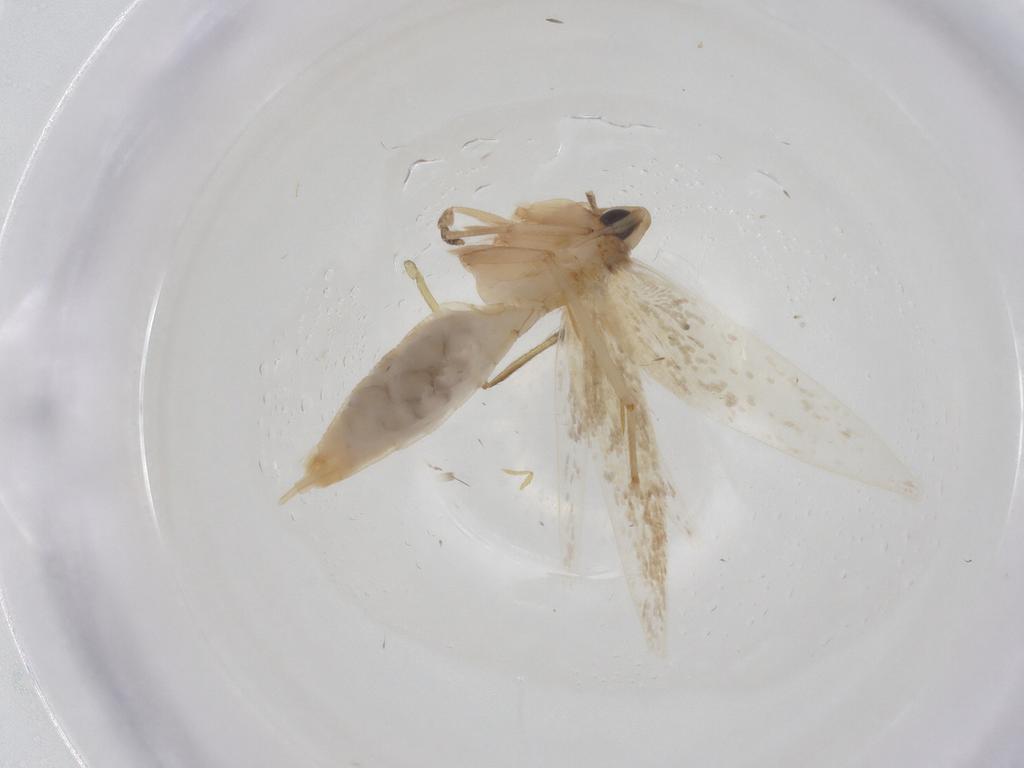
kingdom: Animalia
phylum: Arthropoda
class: Insecta
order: Lepidoptera
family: Tineidae
